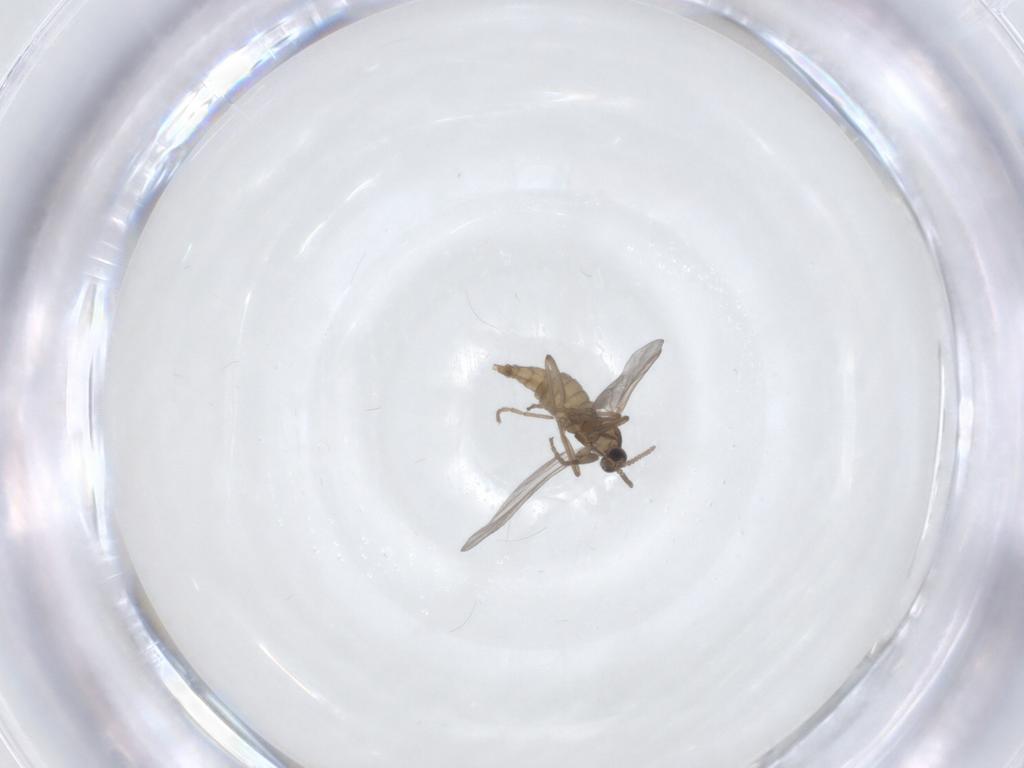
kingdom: Animalia
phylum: Arthropoda
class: Insecta
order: Diptera
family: Cecidomyiidae
